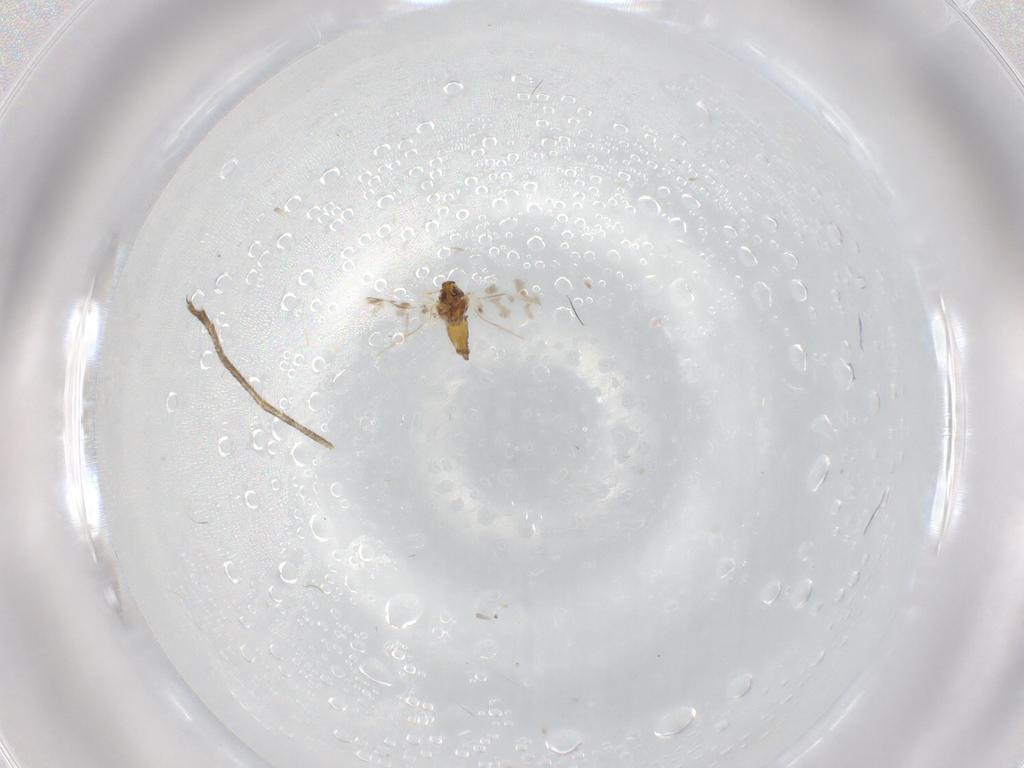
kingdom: Animalia
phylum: Arthropoda
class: Insecta
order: Hemiptera
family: Aleyrodidae
